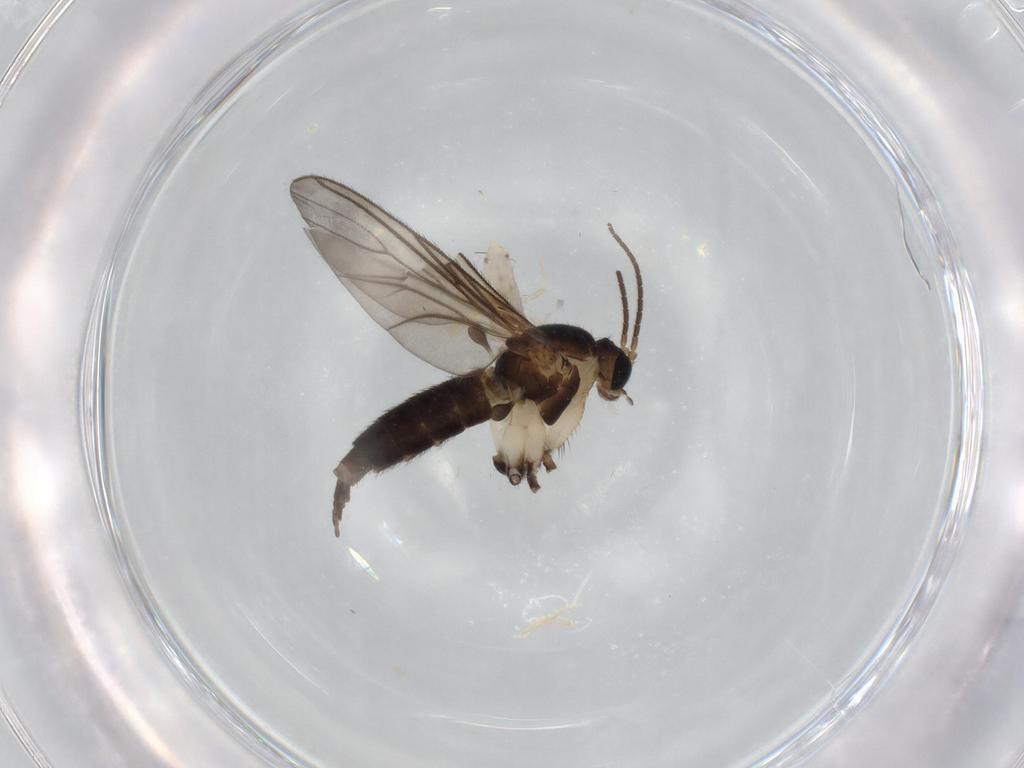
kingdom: Animalia
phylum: Arthropoda
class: Insecta
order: Diptera
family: Sciaridae
